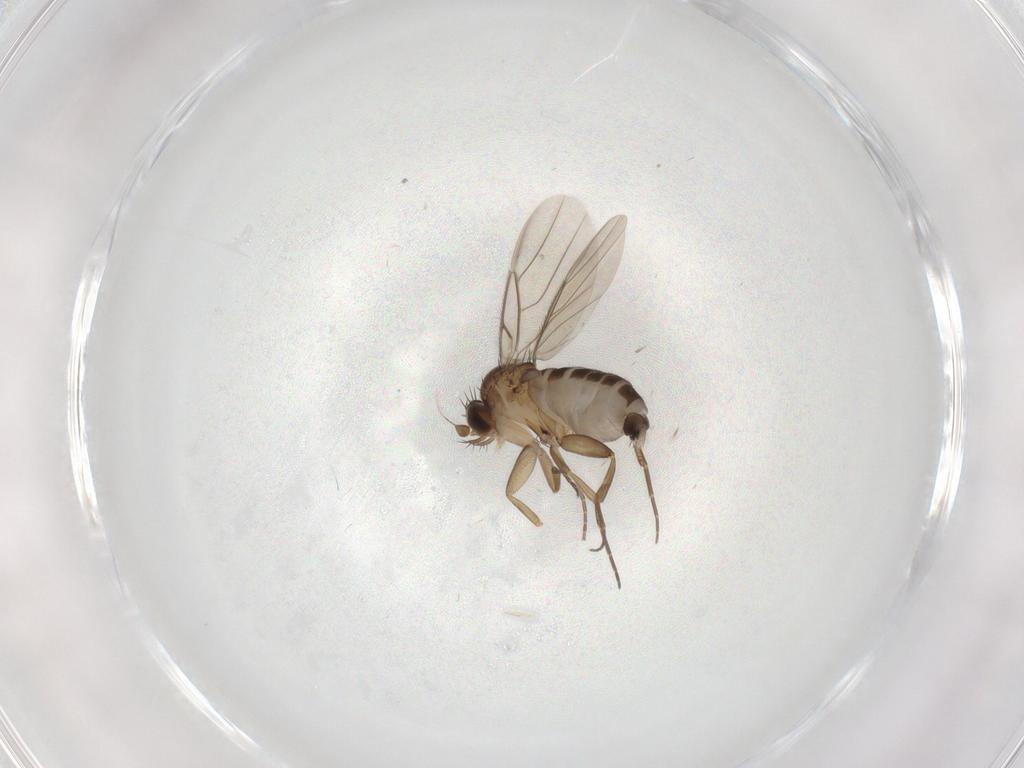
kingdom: Animalia
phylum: Arthropoda
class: Insecta
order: Diptera
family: Phoridae
